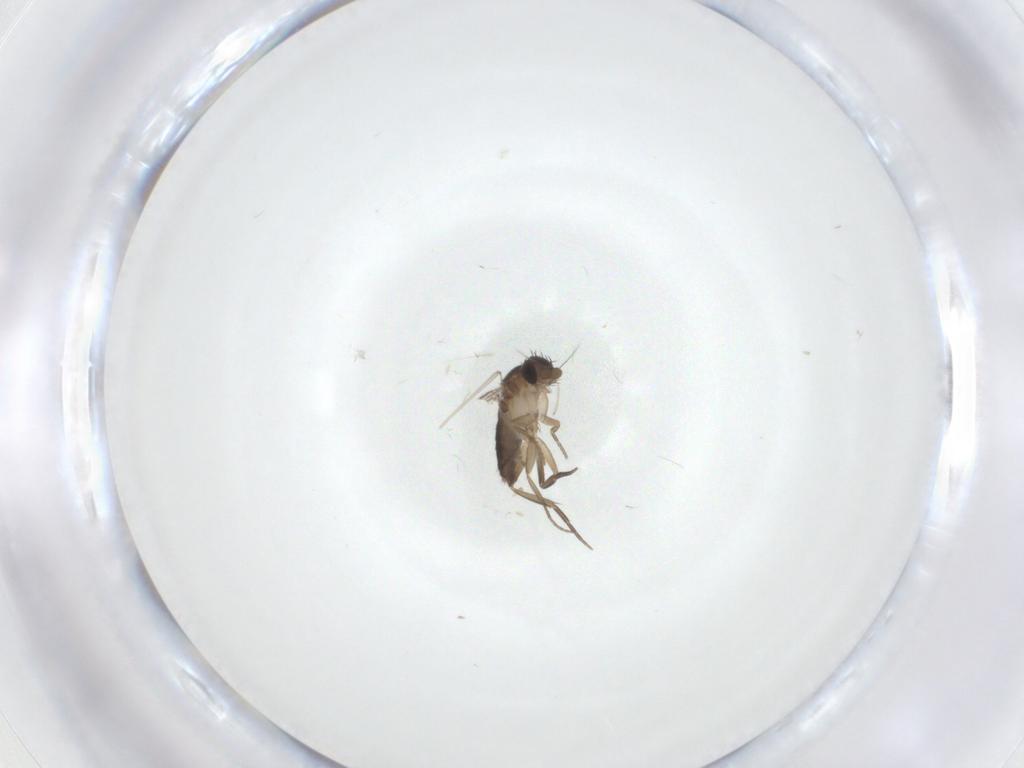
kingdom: Animalia
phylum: Arthropoda
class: Insecta
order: Diptera
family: Phoridae
